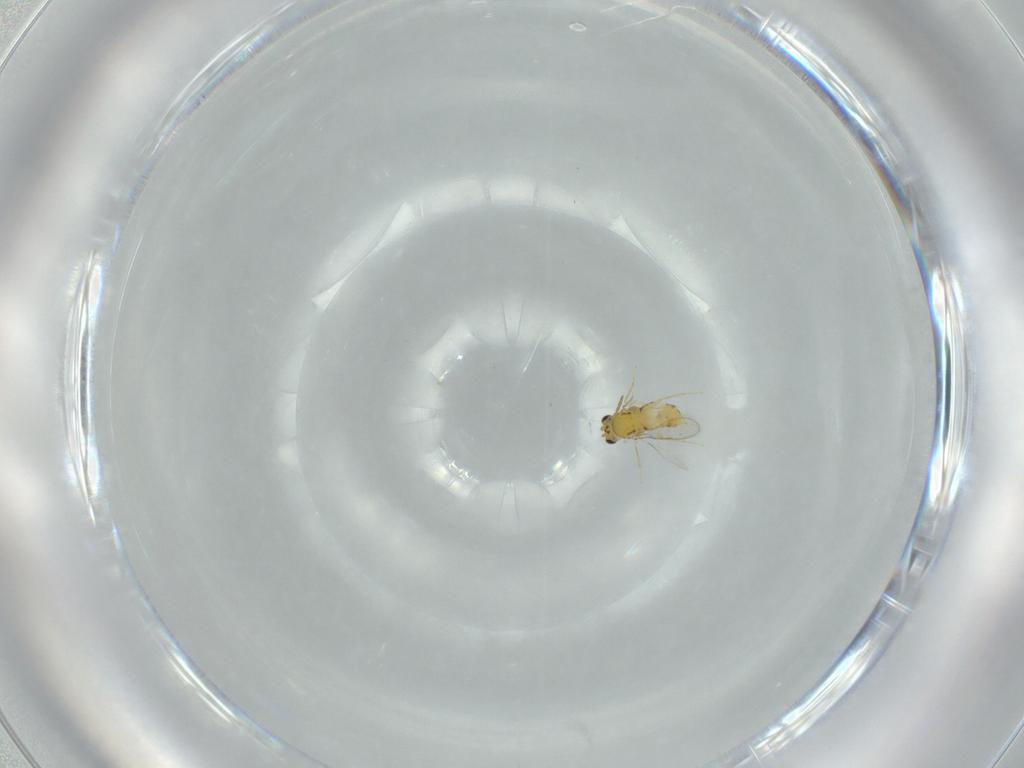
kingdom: Animalia
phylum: Arthropoda
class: Insecta
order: Hymenoptera
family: Aphelinidae
